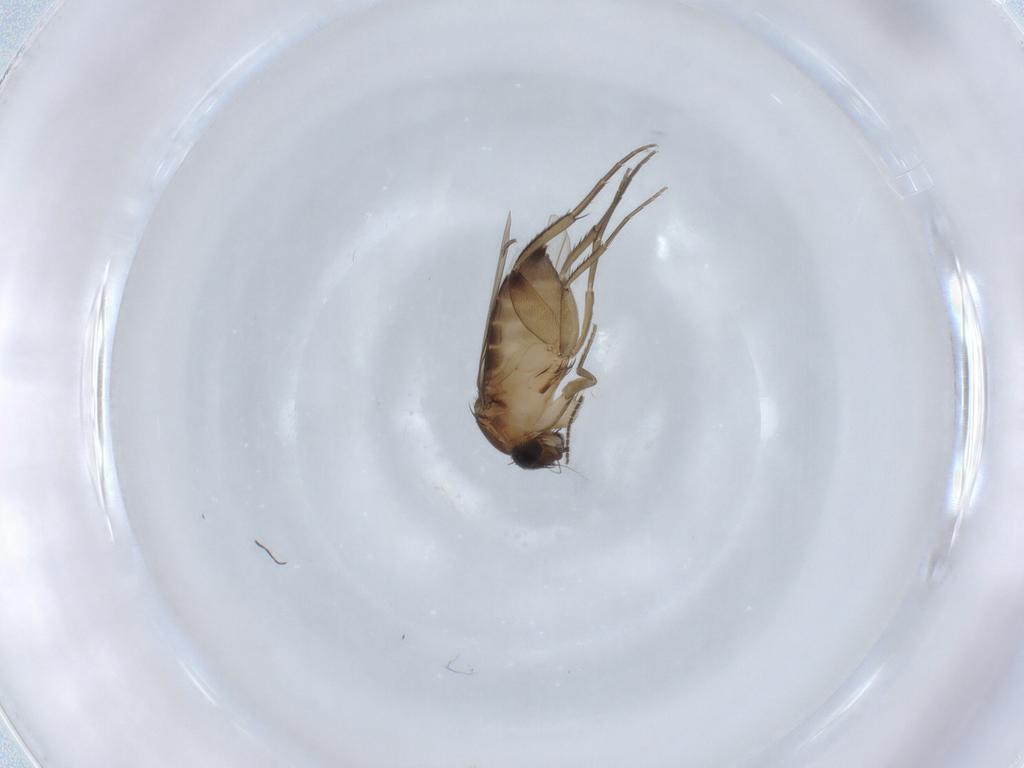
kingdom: Animalia
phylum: Arthropoda
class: Insecta
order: Diptera
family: Phoridae
